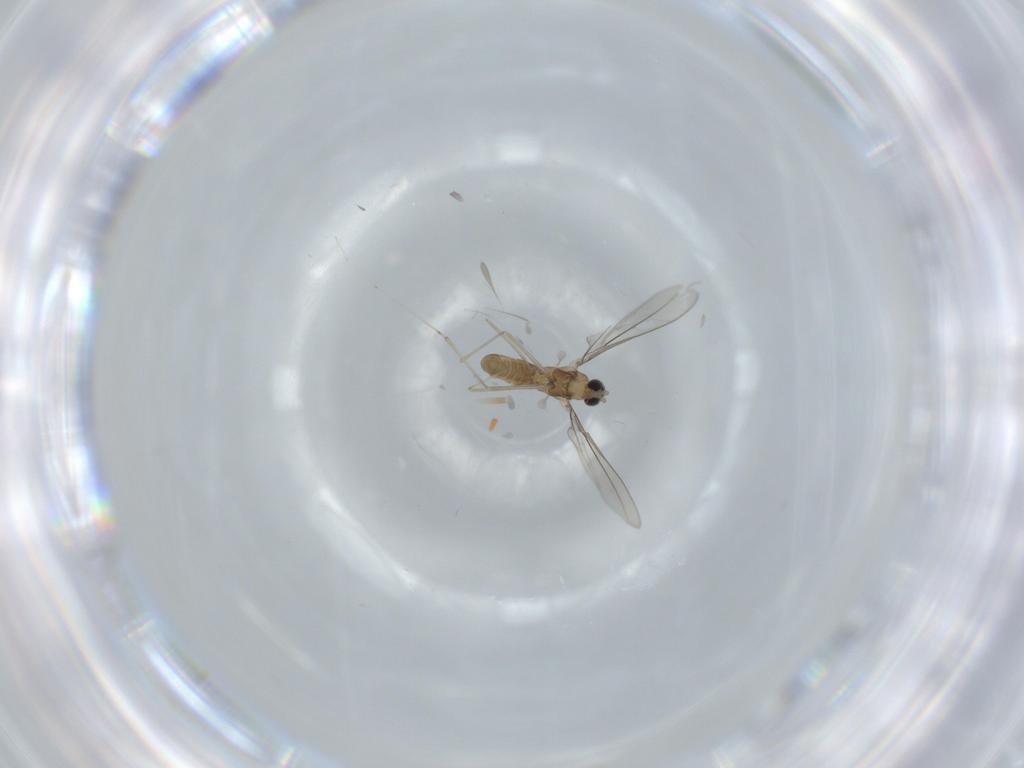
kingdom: Animalia
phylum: Arthropoda
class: Insecta
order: Diptera
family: Cecidomyiidae
